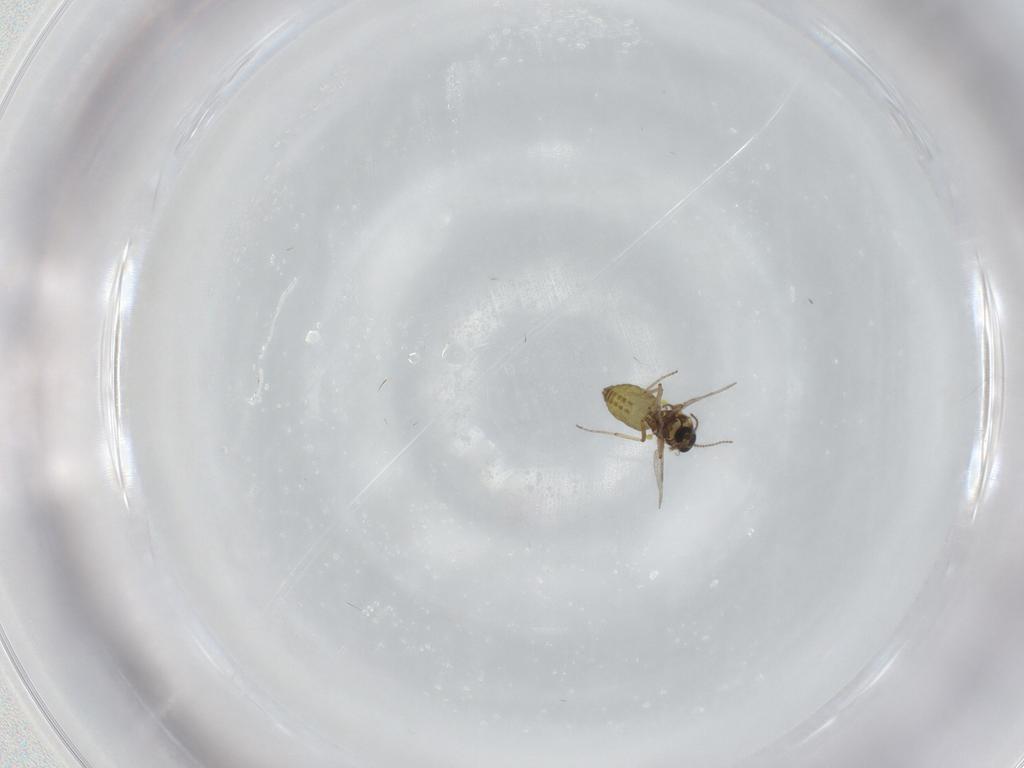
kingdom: Animalia
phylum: Arthropoda
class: Insecta
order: Diptera
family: Ceratopogonidae
